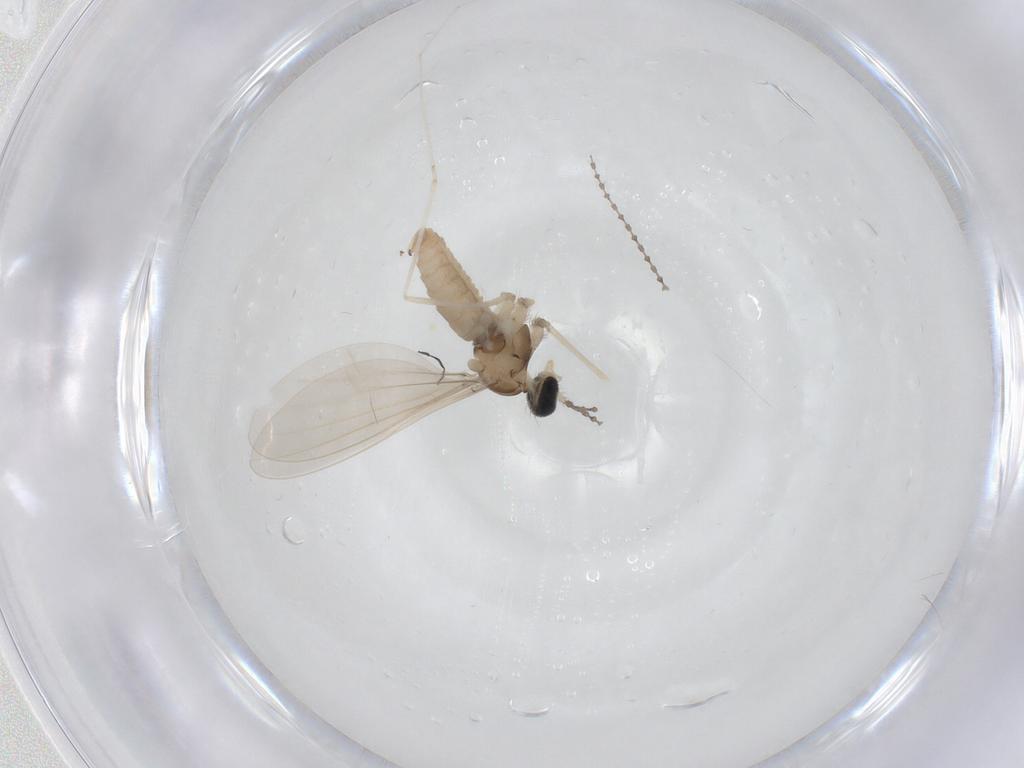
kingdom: Animalia
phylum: Arthropoda
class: Insecta
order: Diptera
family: Cecidomyiidae
